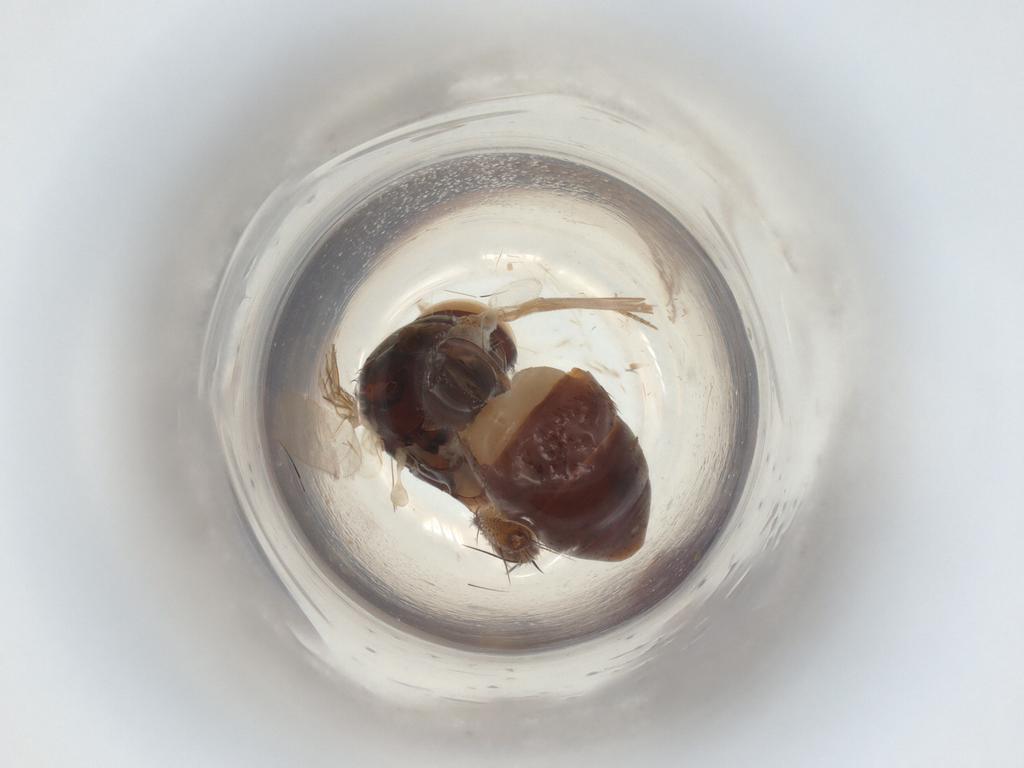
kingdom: Animalia
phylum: Arthropoda
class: Insecta
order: Diptera
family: Muscidae
